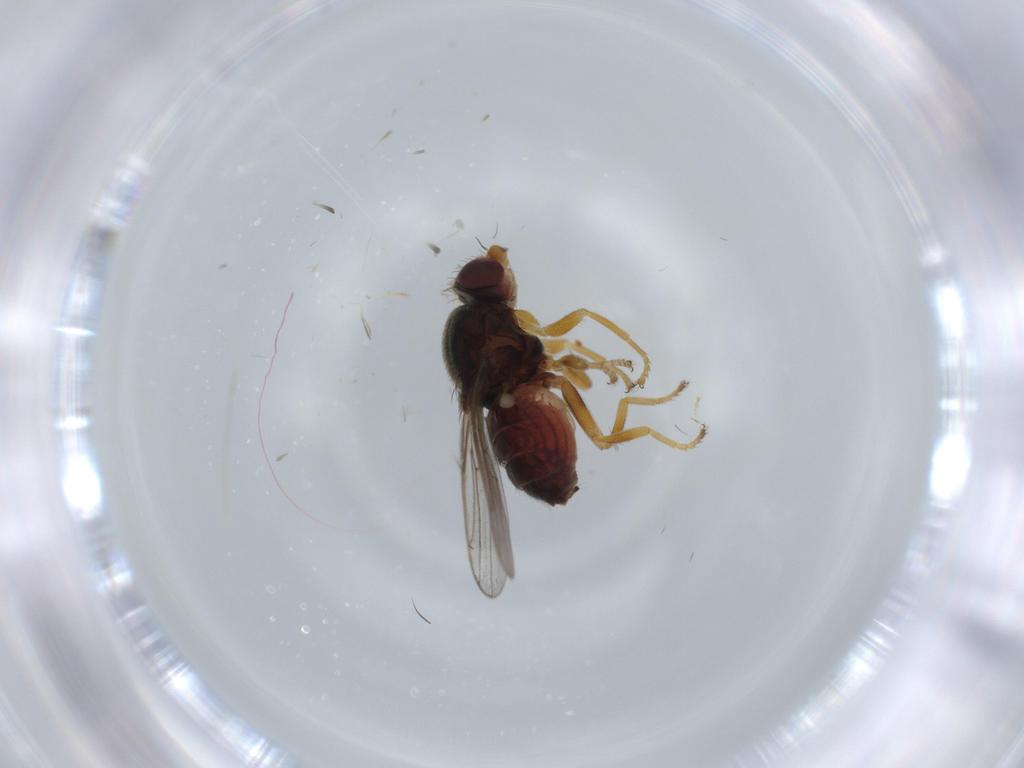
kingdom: Animalia
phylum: Arthropoda
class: Insecta
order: Diptera
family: Chloropidae
